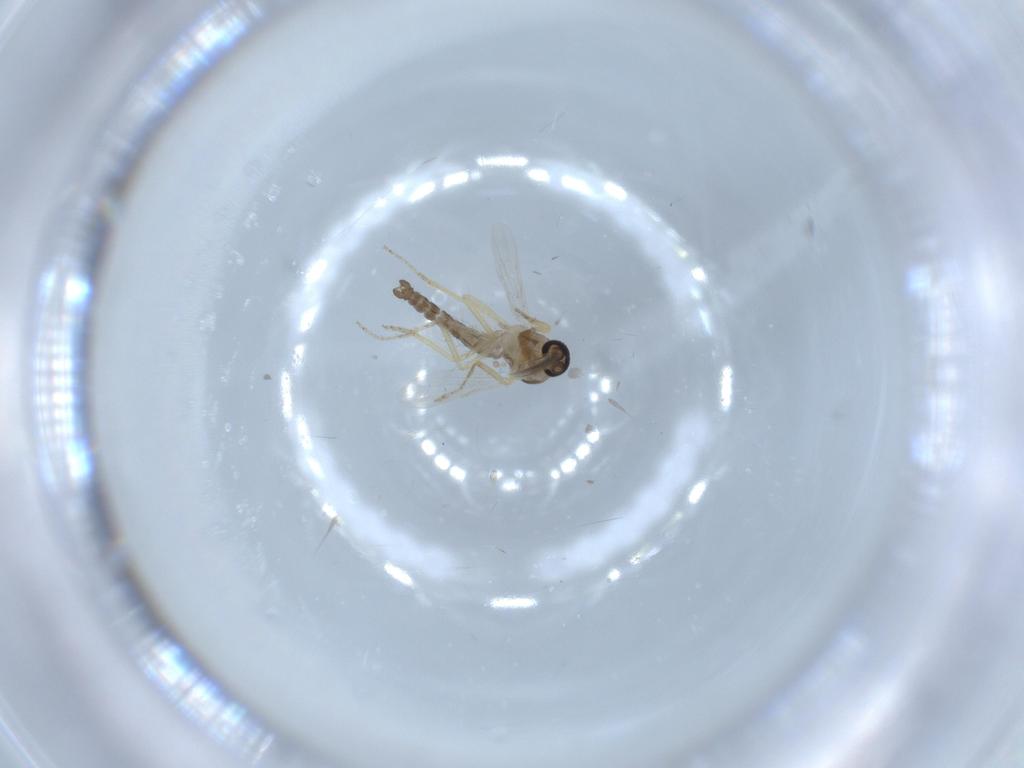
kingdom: Animalia
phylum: Arthropoda
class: Insecta
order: Diptera
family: Ceratopogonidae
